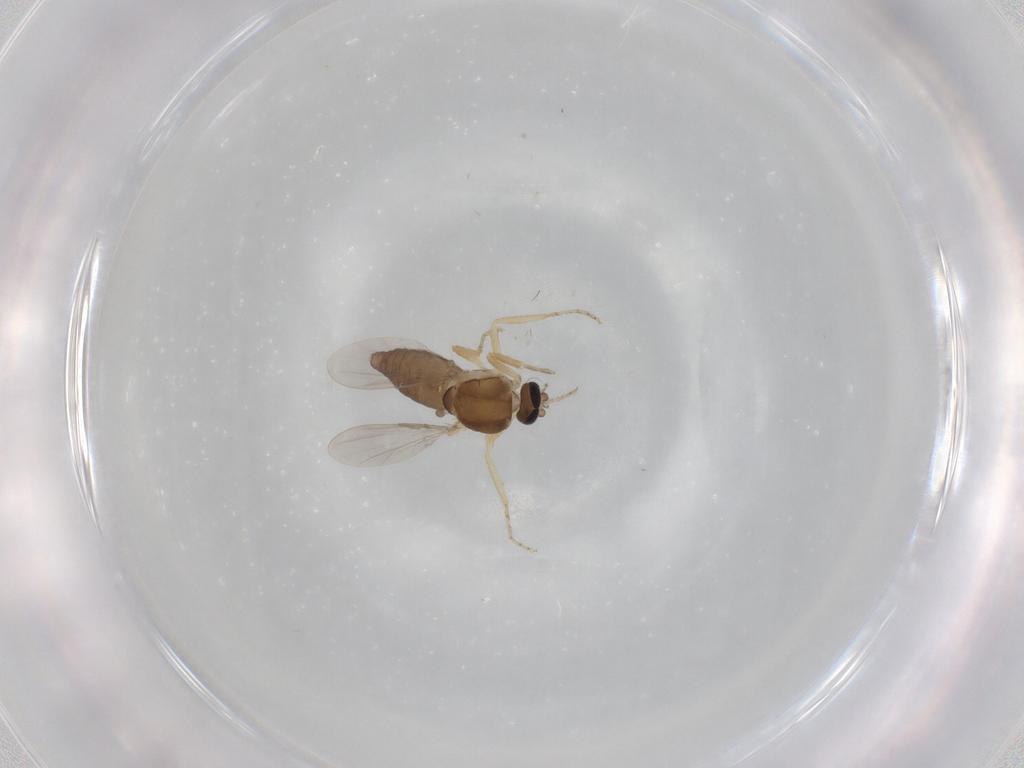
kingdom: Animalia
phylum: Arthropoda
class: Insecta
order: Diptera
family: Ceratopogonidae
